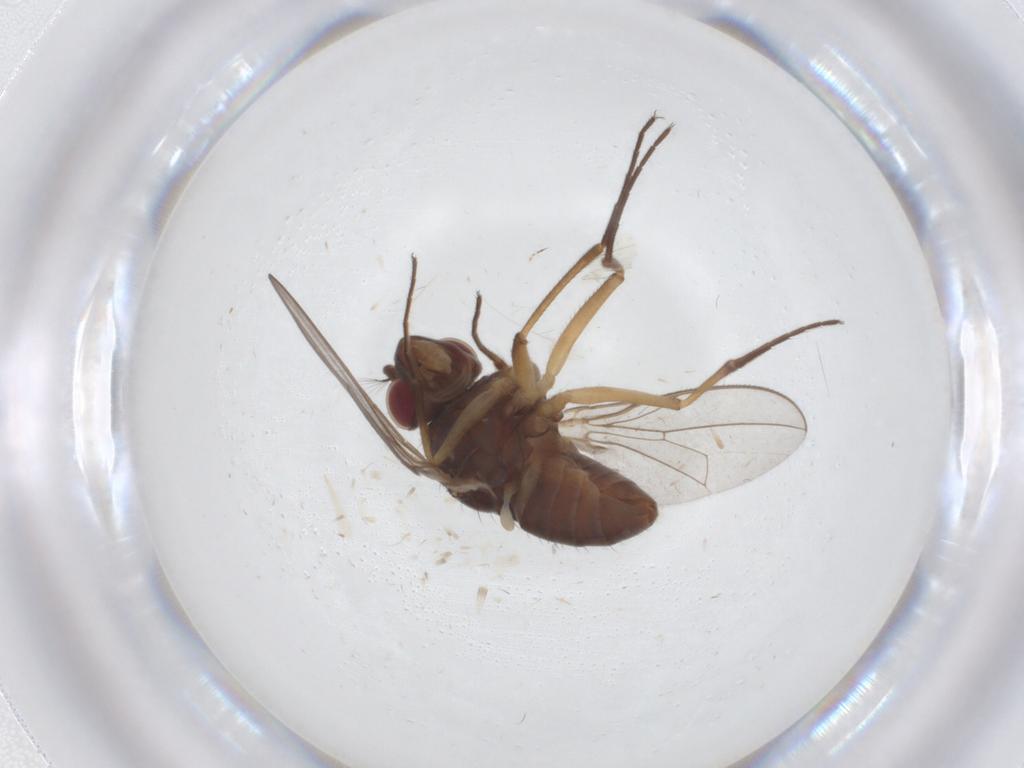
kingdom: Animalia
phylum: Arthropoda
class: Insecta
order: Diptera
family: Ephydridae
